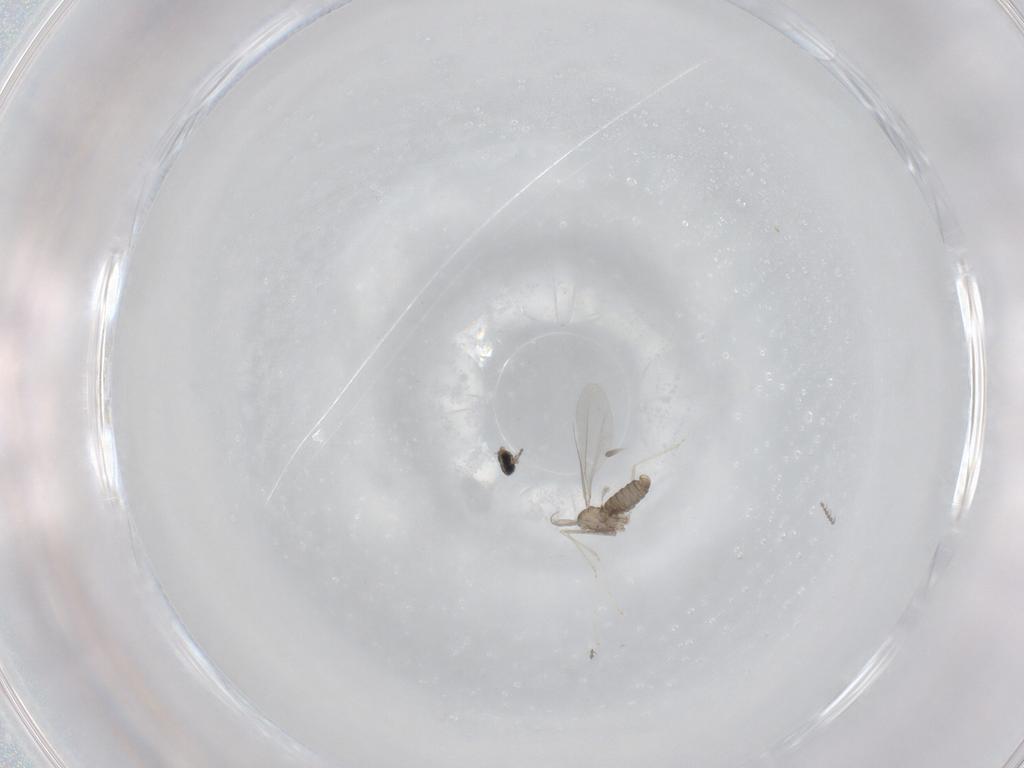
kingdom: Animalia
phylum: Arthropoda
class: Insecta
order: Diptera
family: Cecidomyiidae
